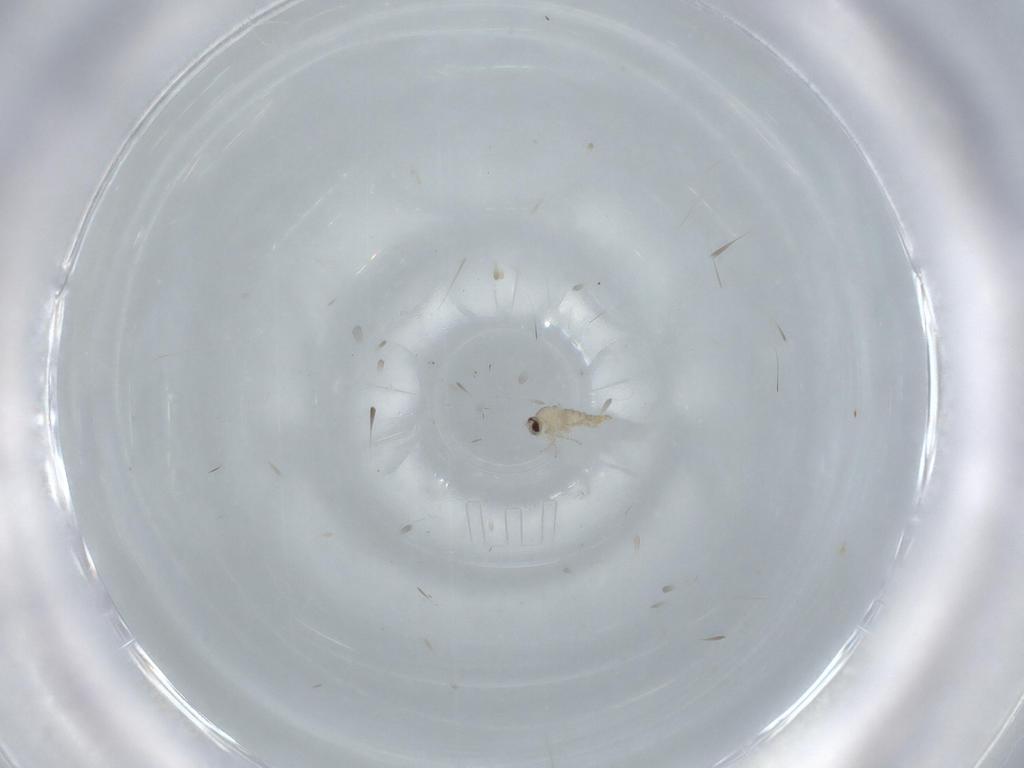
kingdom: Animalia
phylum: Arthropoda
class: Insecta
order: Diptera
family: Cecidomyiidae
